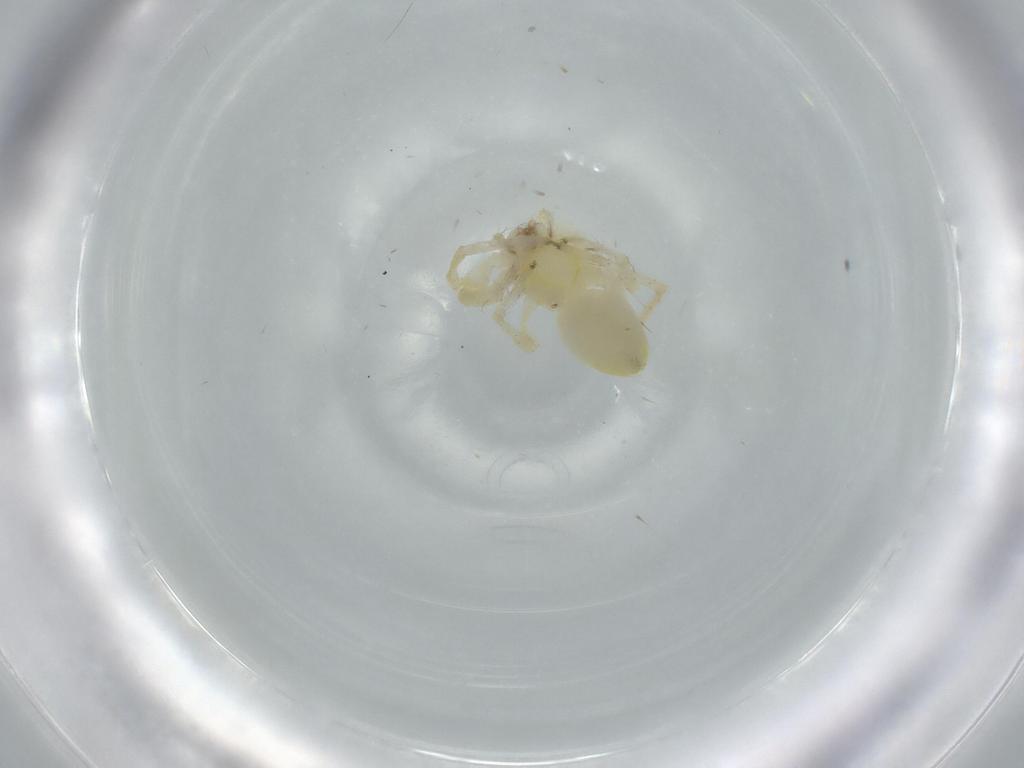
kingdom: Animalia
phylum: Arthropoda
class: Arachnida
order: Araneae
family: Anyphaenidae
